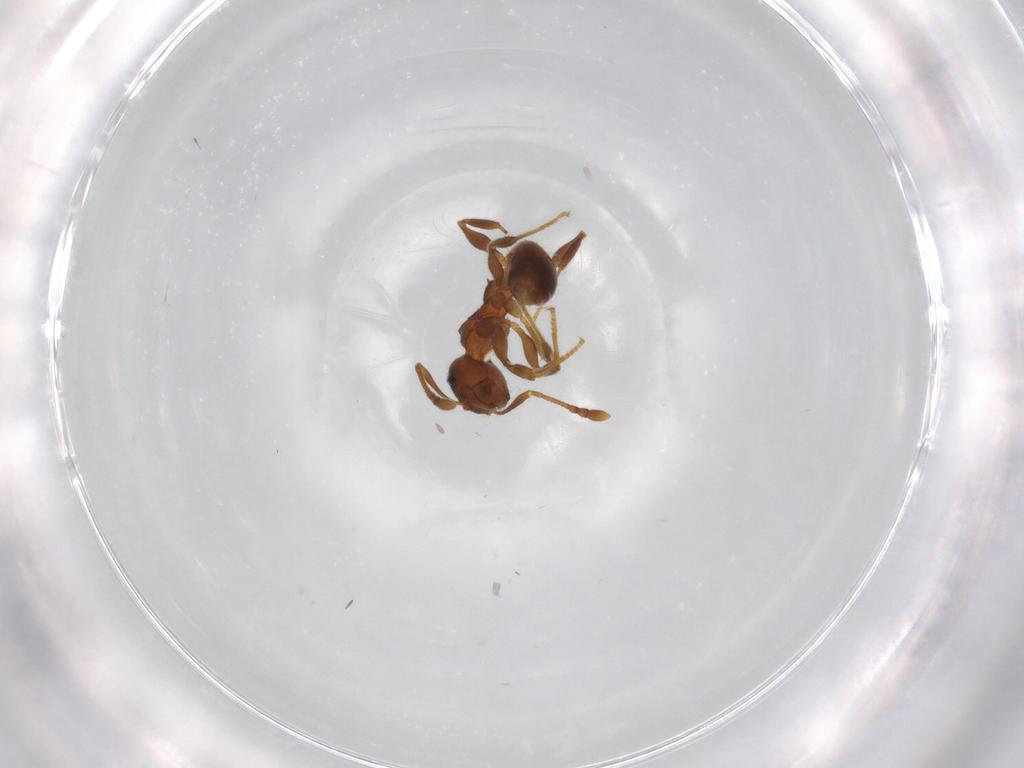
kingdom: Animalia
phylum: Arthropoda
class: Insecta
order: Hymenoptera
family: Formicidae
